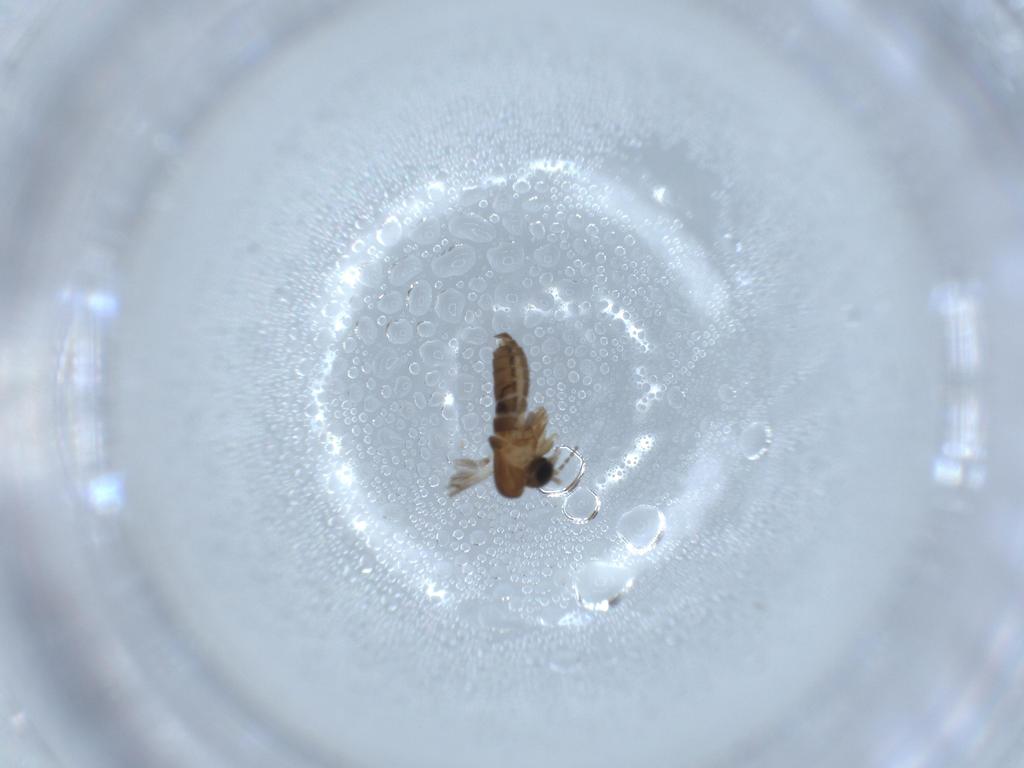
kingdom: Animalia
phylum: Arthropoda
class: Insecta
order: Diptera
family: Psychodidae
